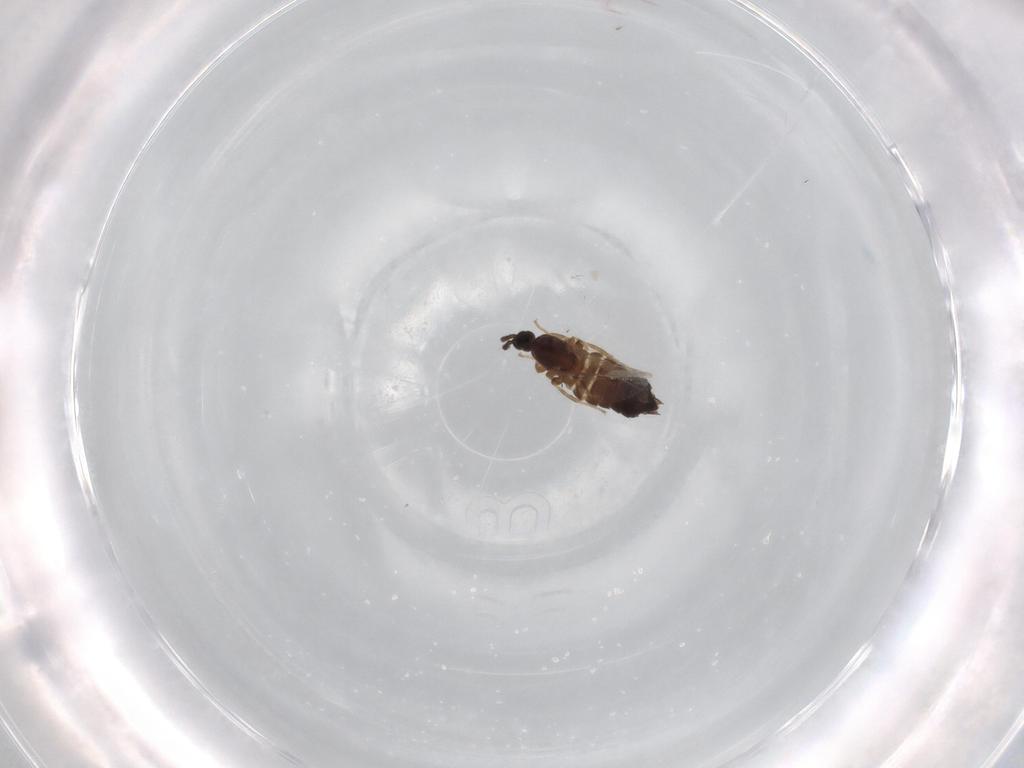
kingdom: Animalia
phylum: Arthropoda
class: Insecta
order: Diptera
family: Scatopsidae
